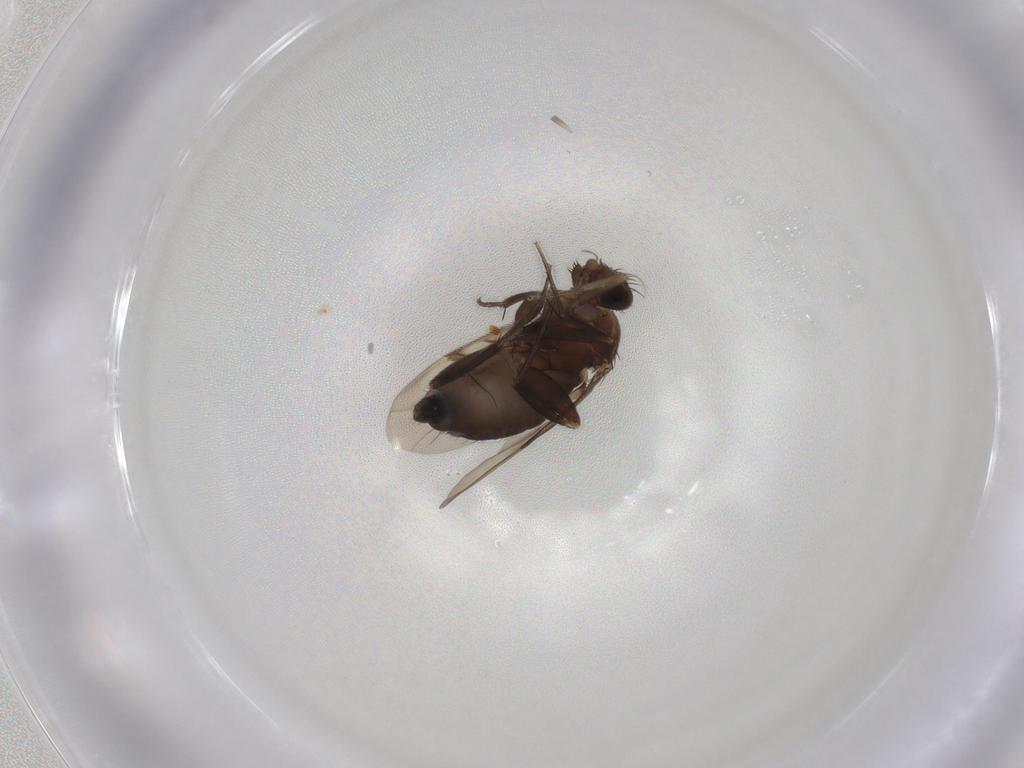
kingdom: Animalia
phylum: Arthropoda
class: Insecta
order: Diptera
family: Phoridae
